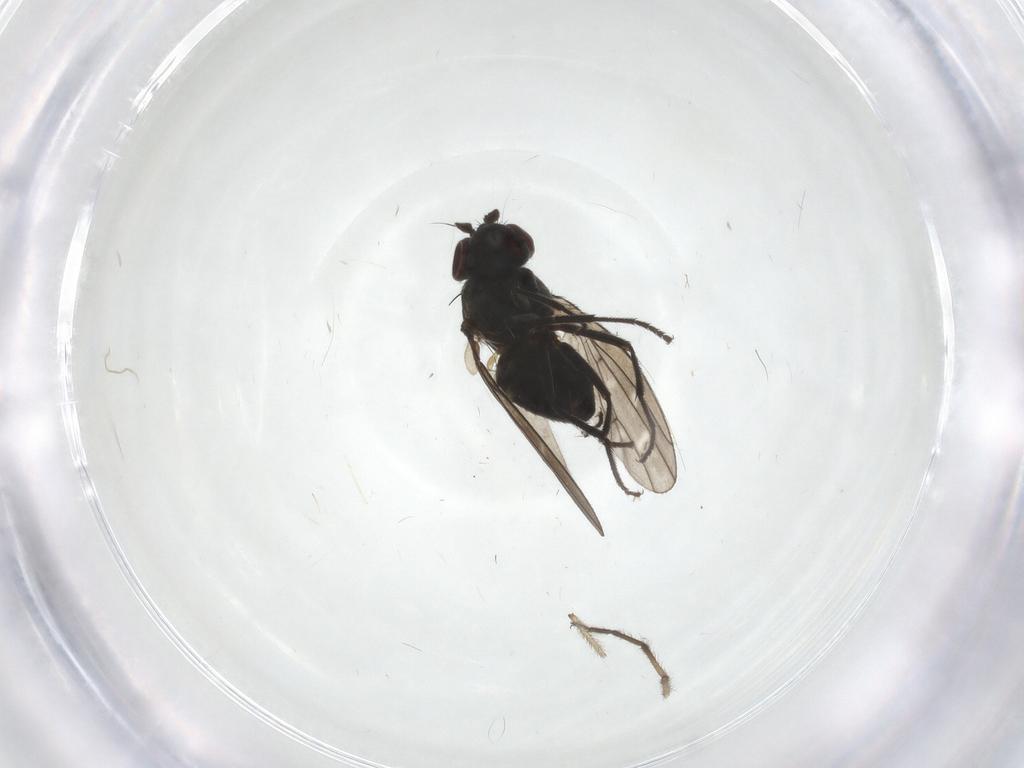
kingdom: Animalia
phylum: Arthropoda
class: Insecta
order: Diptera
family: Ephydridae
